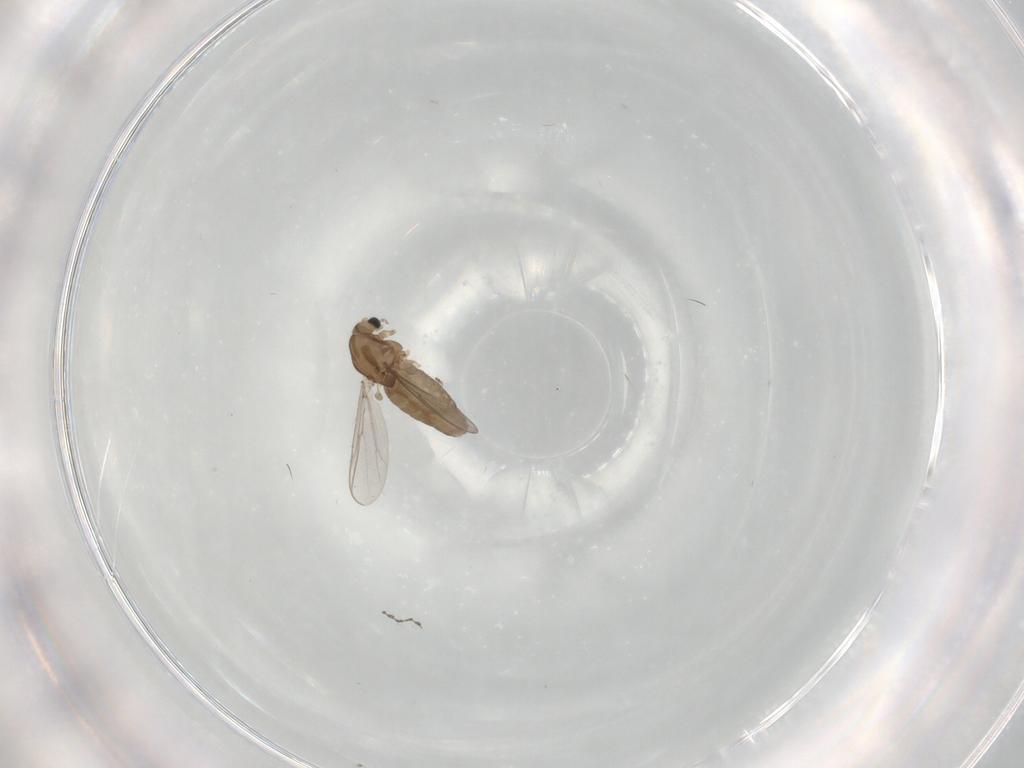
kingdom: Animalia
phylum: Arthropoda
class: Insecta
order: Diptera
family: Chironomidae
